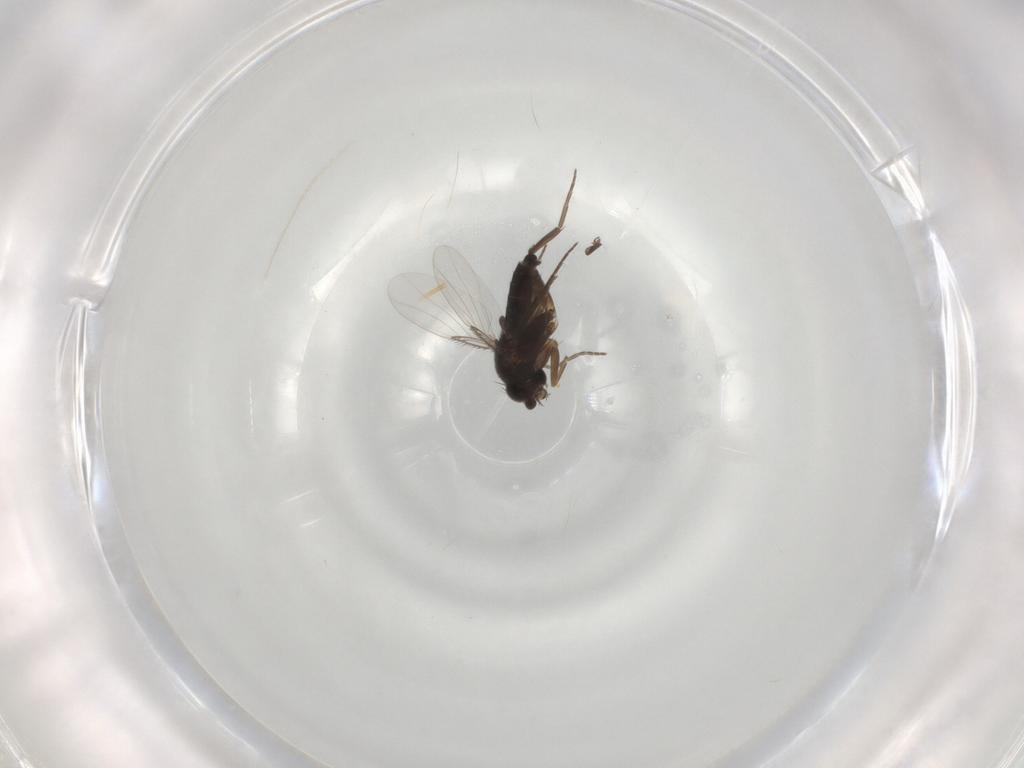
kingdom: Animalia
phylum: Arthropoda
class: Insecta
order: Diptera
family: Phoridae
